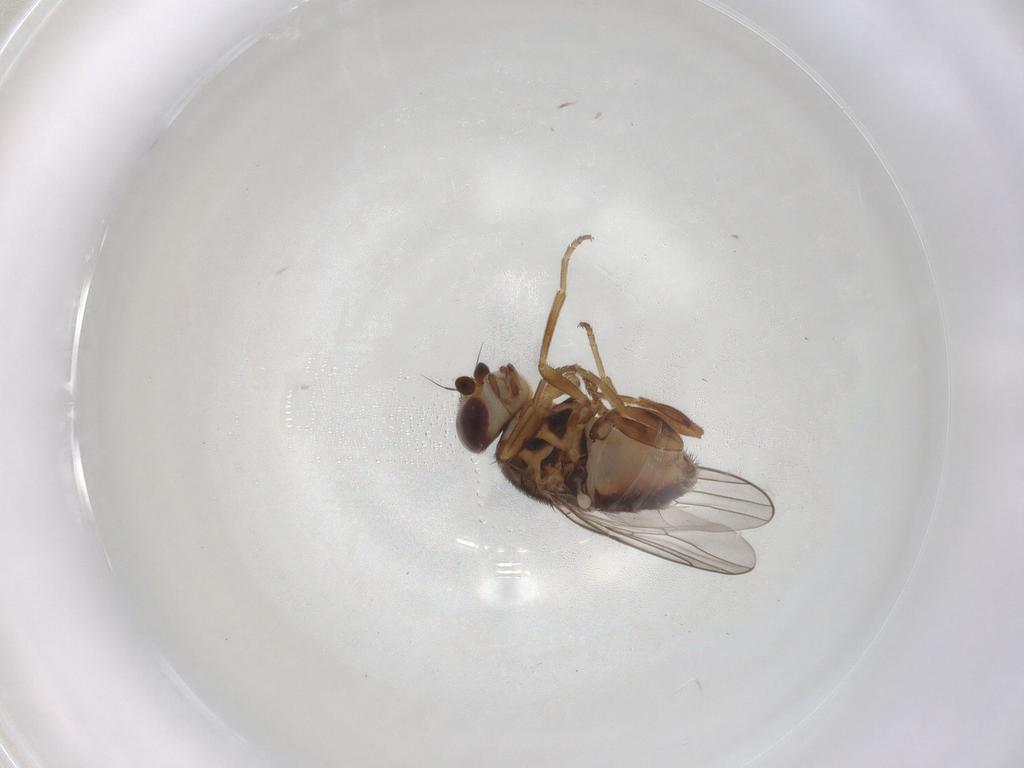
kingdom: Animalia
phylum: Arthropoda
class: Insecta
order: Diptera
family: Chloropidae
